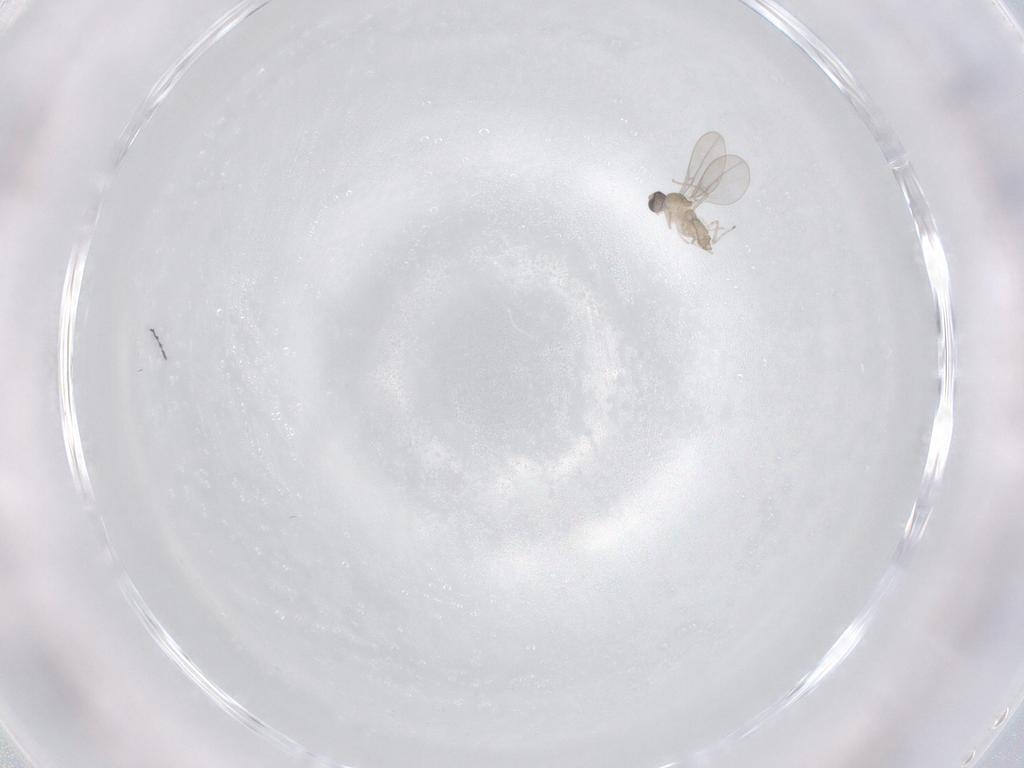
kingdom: Animalia
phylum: Arthropoda
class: Insecta
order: Diptera
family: Cecidomyiidae
